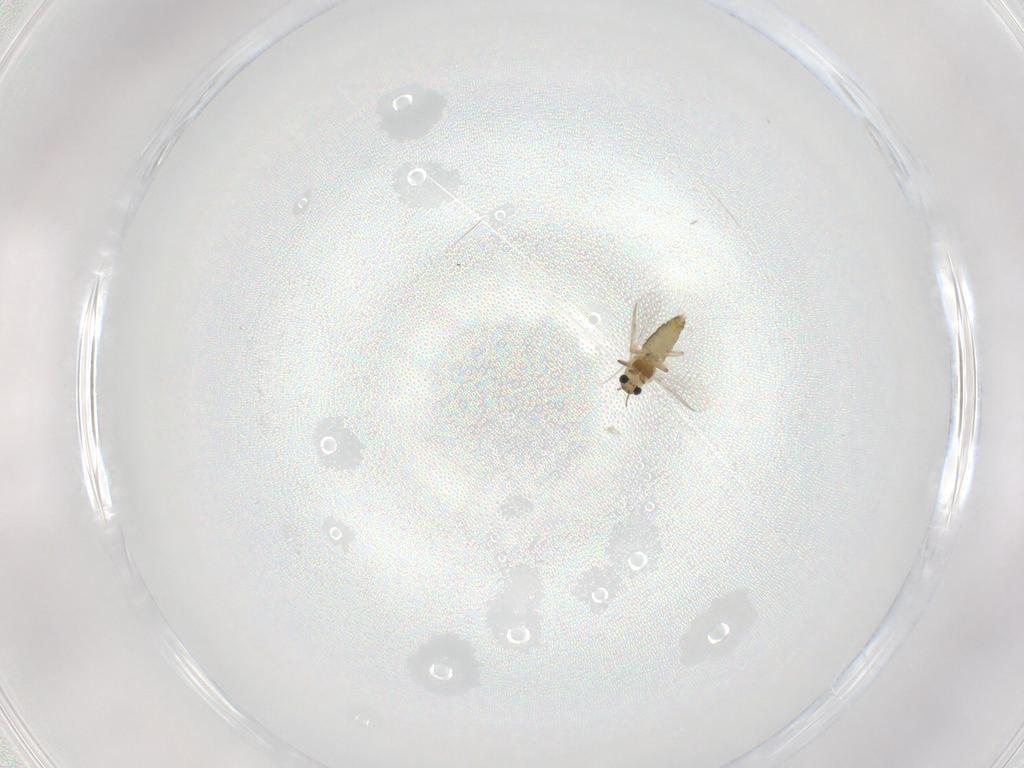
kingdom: Animalia
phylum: Arthropoda
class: Insecta
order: Diptera
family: Chironomidae
